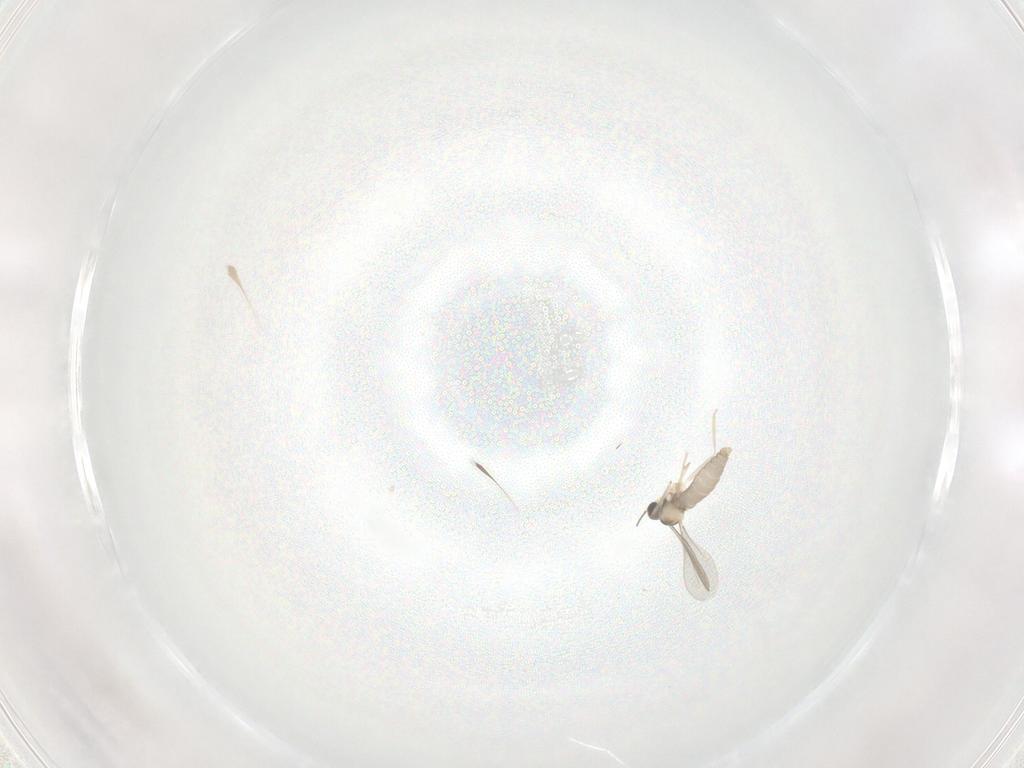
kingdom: Animalia
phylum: Arthropoda
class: Insecta
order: Diptera
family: Cecidomyiidae
